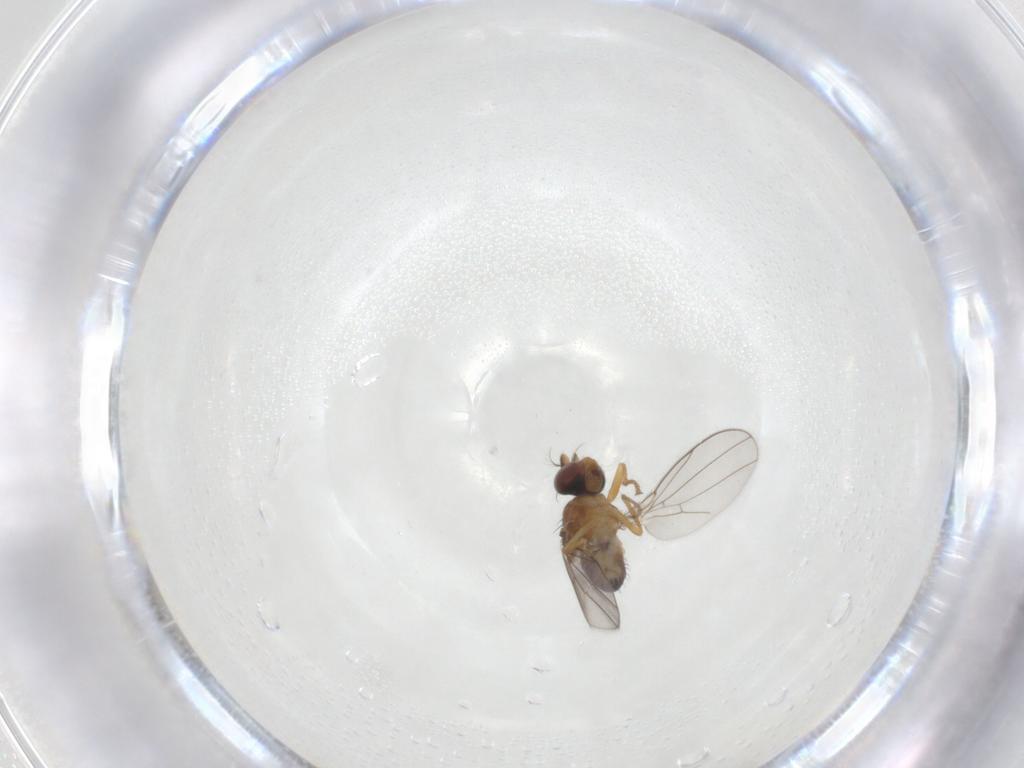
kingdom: Animalia
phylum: Arthropoda
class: Insecta
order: Diptera
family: Ephydridae
